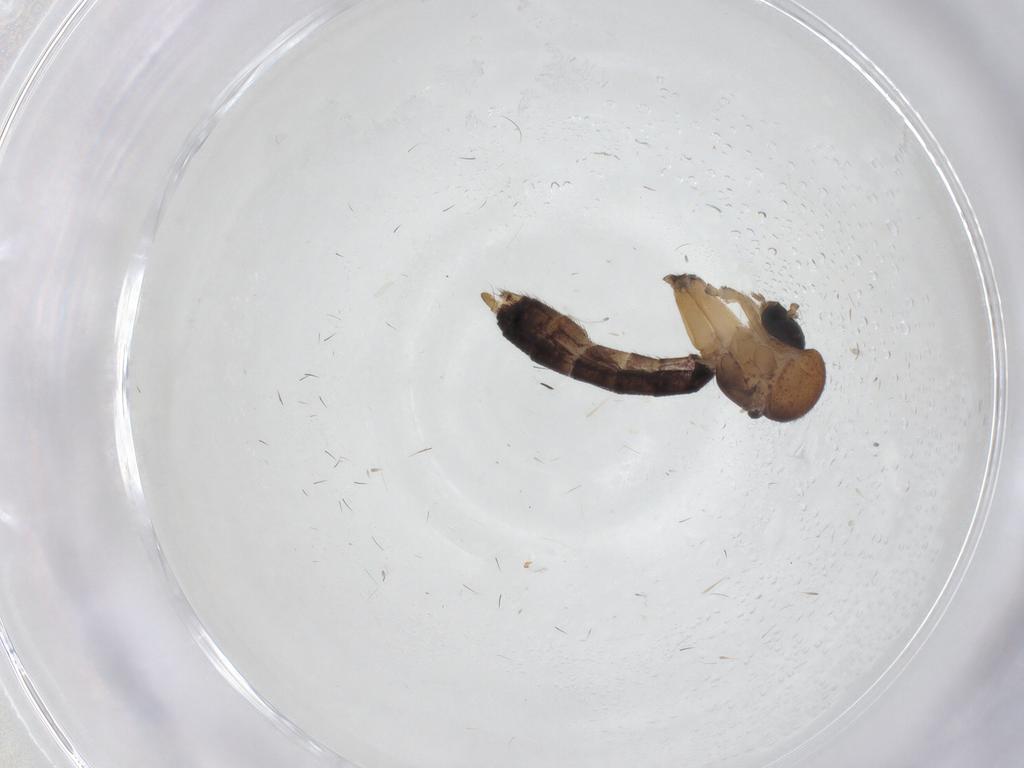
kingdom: Animalia
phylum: Arthropoda
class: Insecta
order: Diptera
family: Mycetophilidae
